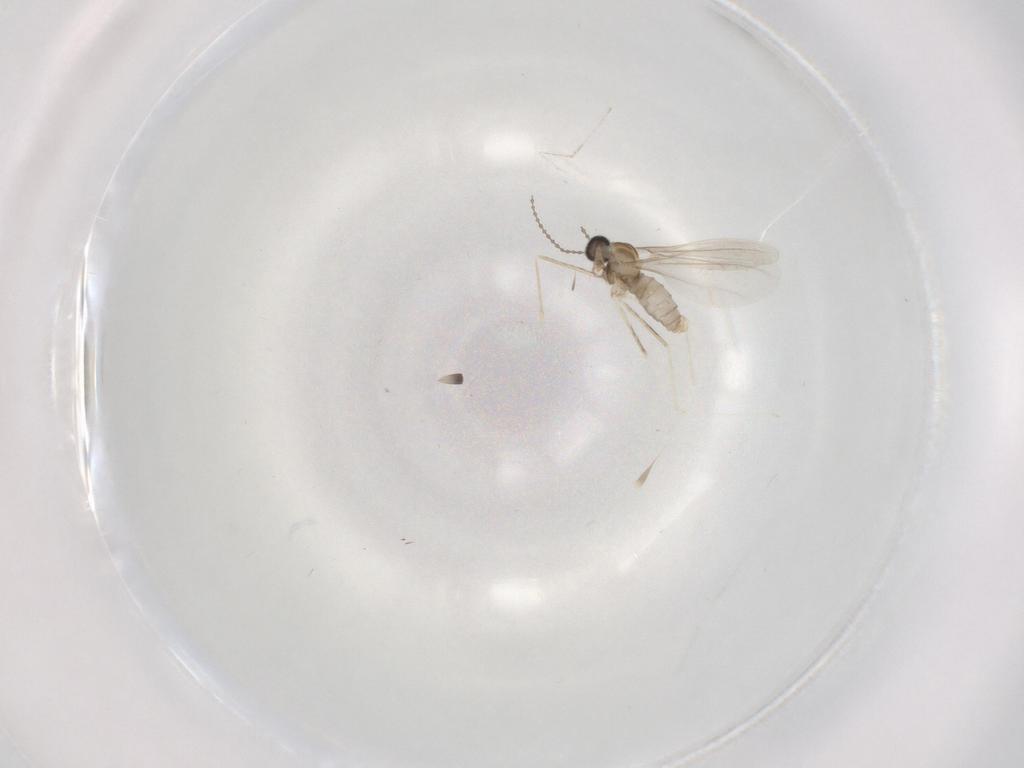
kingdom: Animalia
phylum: Arthropoda
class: Insecta
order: Diptera
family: Cecidomyiidae
